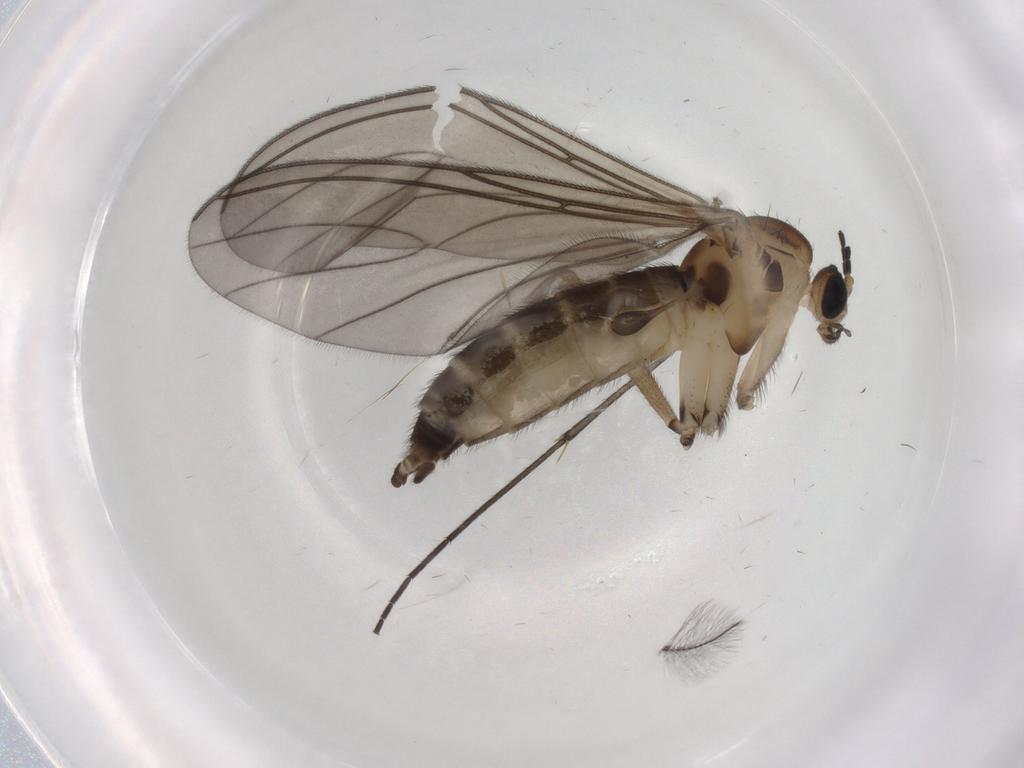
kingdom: Animalia
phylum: Arthropoda
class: Insecta
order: Diptera
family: Sciaridae
